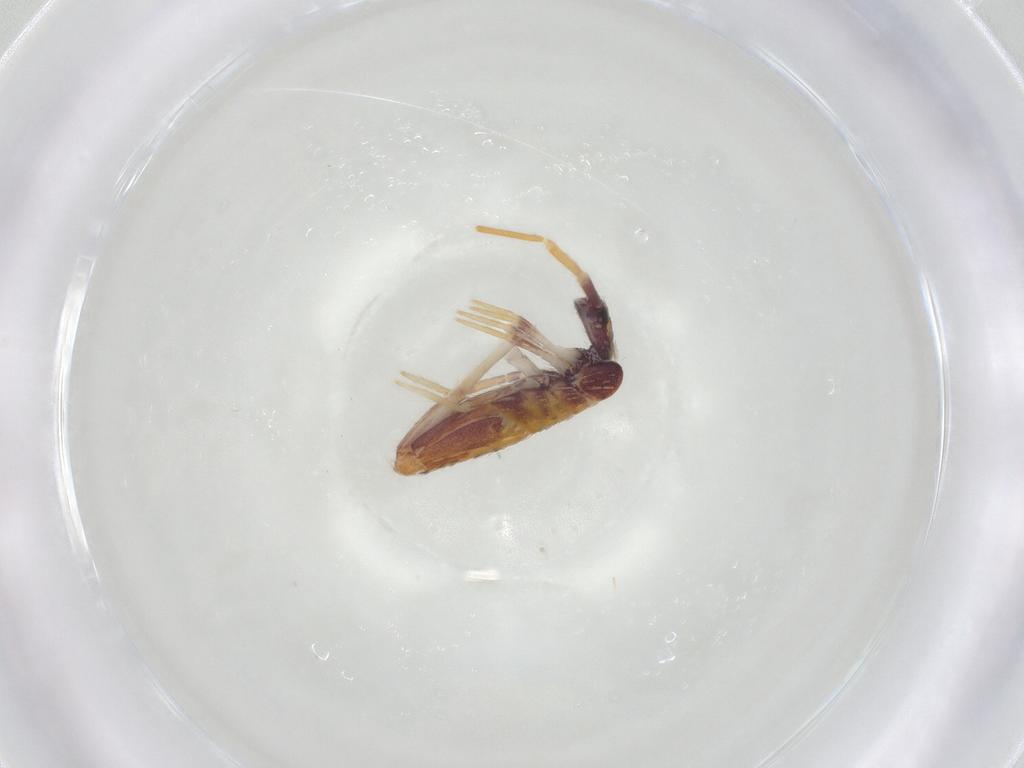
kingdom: Animalia
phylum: Arthropoda
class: Collembola
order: Entomobryomorpha
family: Entomobryidae
